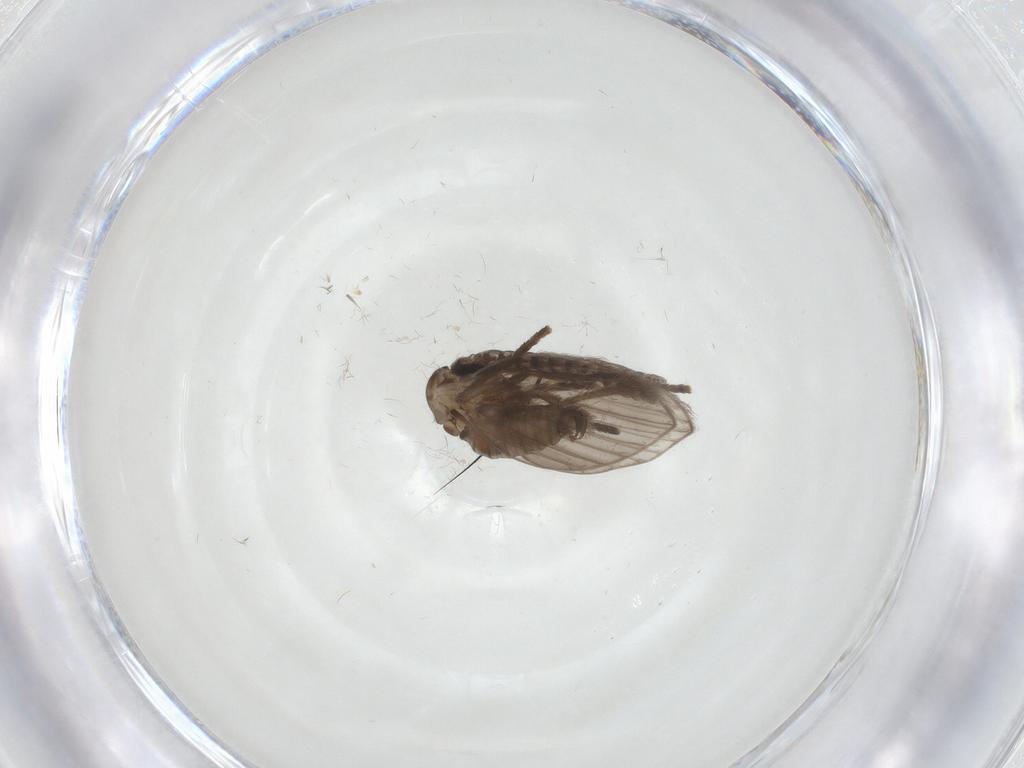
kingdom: Animalia
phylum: Arthropoda
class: Insecta
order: Diptera
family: Psychodidae
